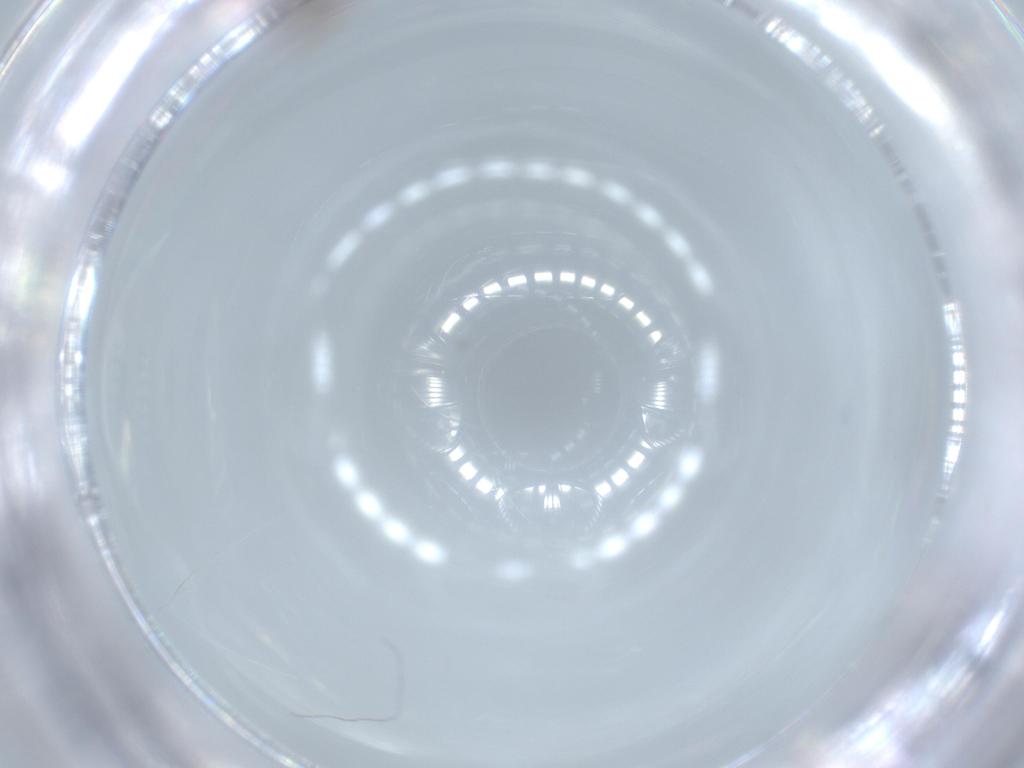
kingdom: Animalia
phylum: Arthropoda
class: Insecta
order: Coleoptera
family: Ptiliidae
